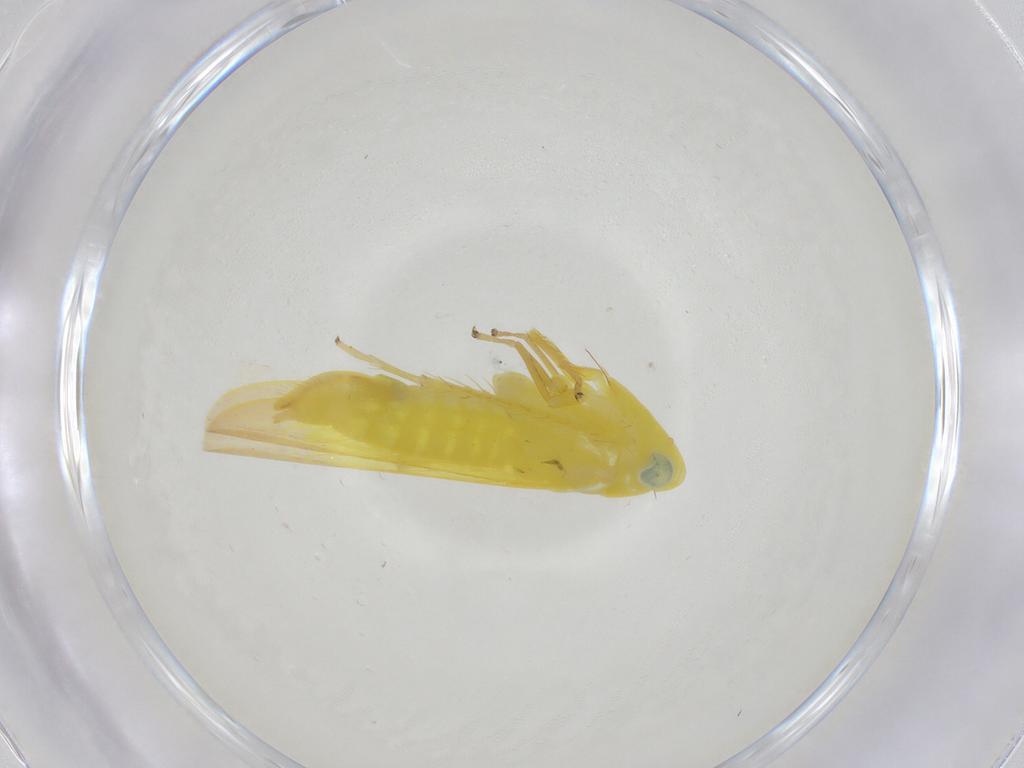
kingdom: Animalia
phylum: Arthropoda
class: Insecta
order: Hemiptera
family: Cicadellidae
